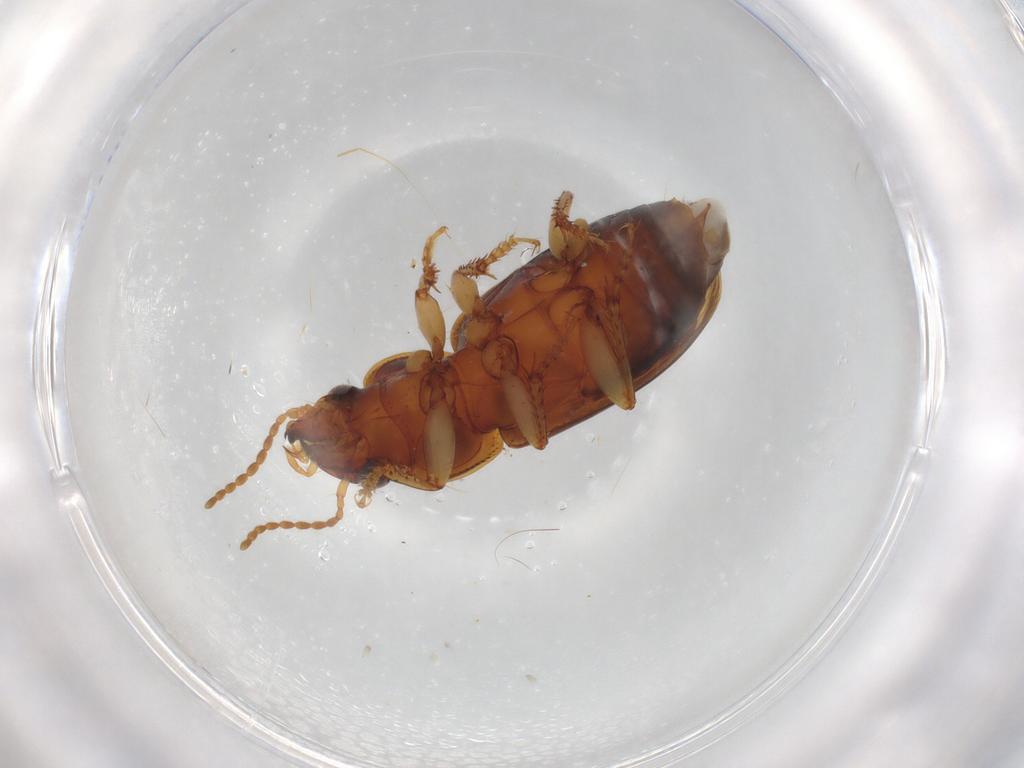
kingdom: Animalia
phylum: Arthropoda
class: Insecta
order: Coleoptera
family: Carabidae
